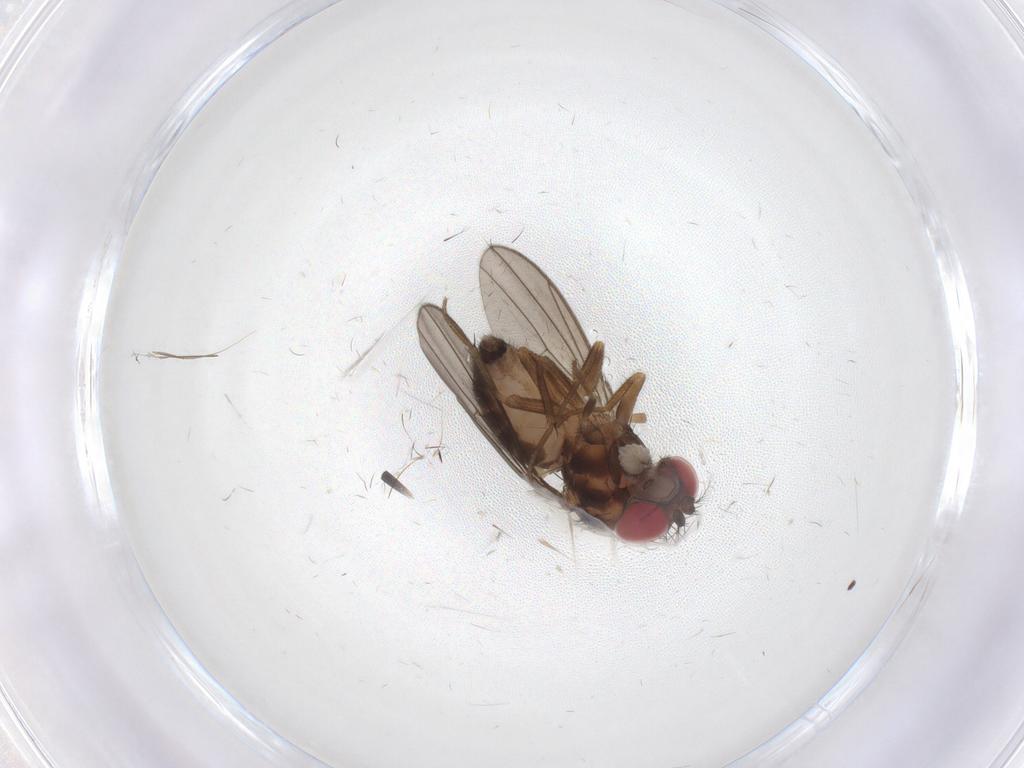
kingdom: Animalia
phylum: Arthropoda
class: Insecta
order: Diptera
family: Drosophilidae
